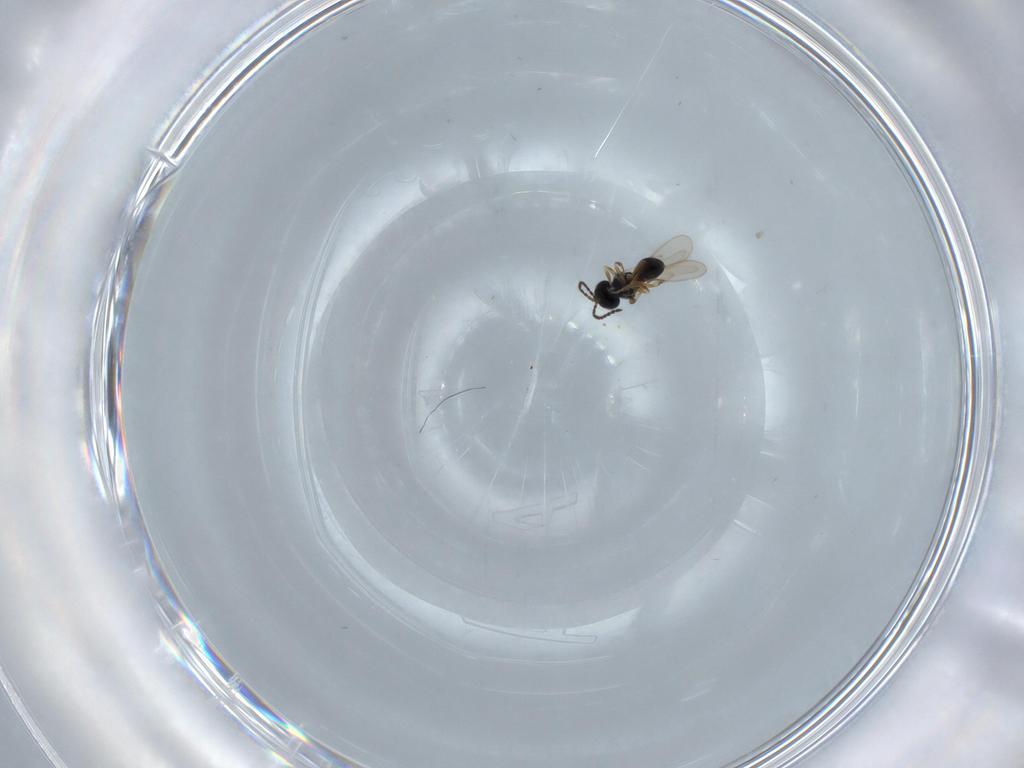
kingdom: Animalia
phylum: Arthropoda
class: Insecta
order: Hymenoptera
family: Scelionidae
